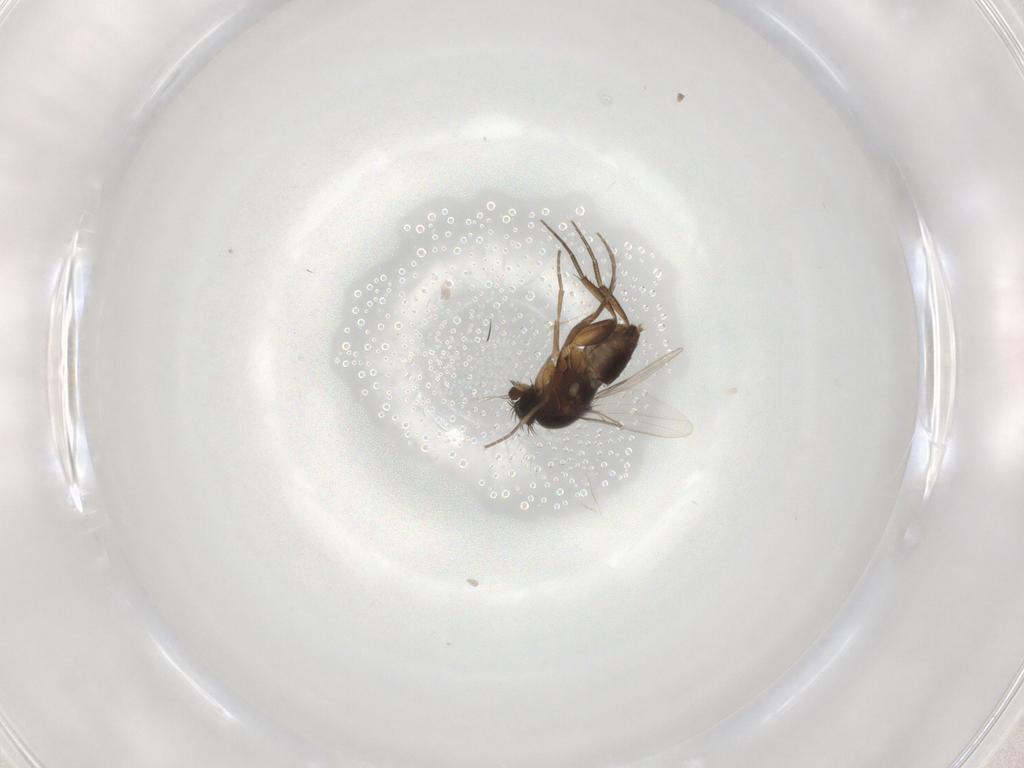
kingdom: Animalia
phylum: Arthropoda
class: Insecta
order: Diptera
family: Phoridae
